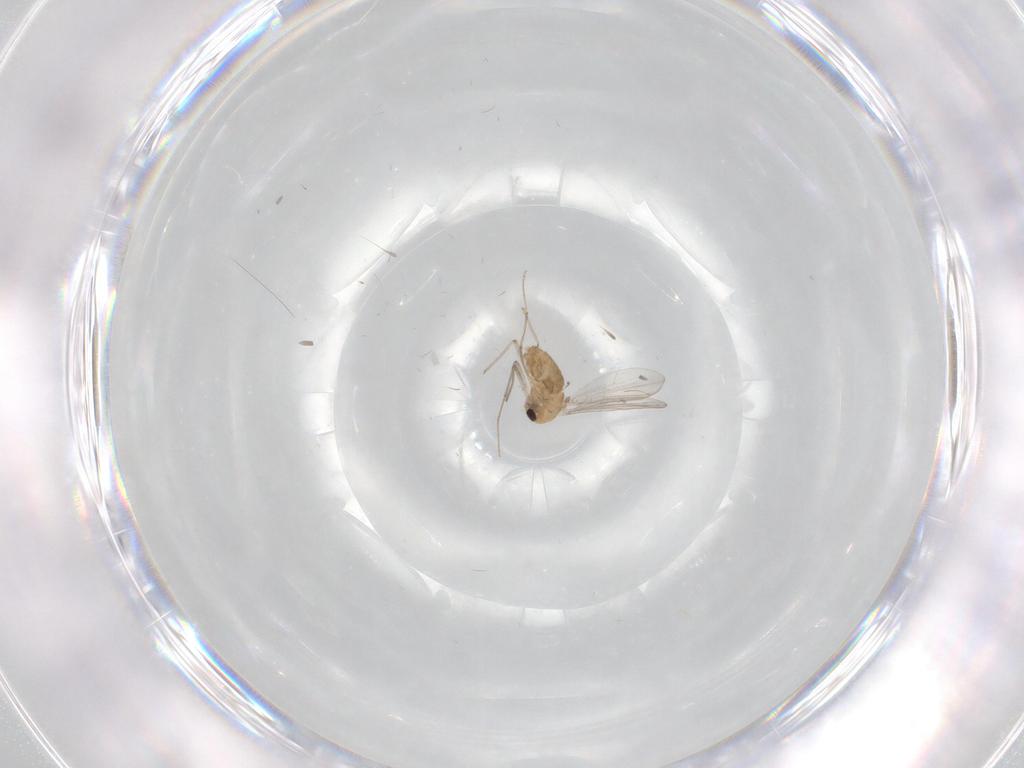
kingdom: Animalia
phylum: Arthropoda
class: Insecta
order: Diptera
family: Chironomidae
